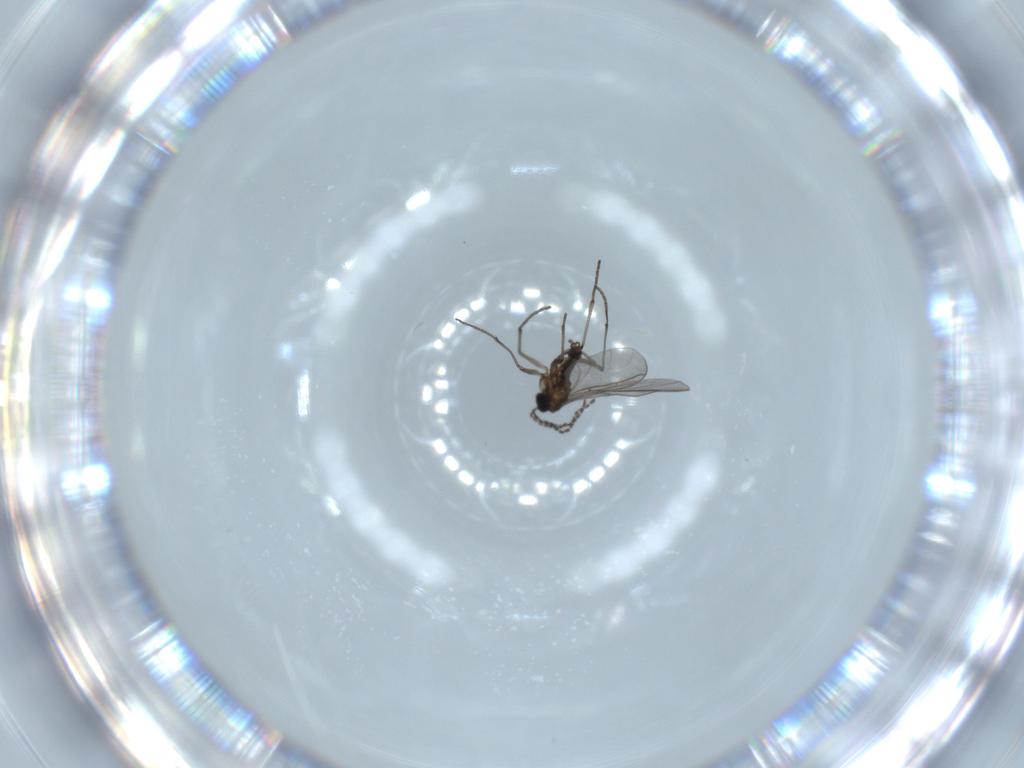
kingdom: Animalia
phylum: Arthropoda
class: Insecta
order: Diptera
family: Sciaridae
